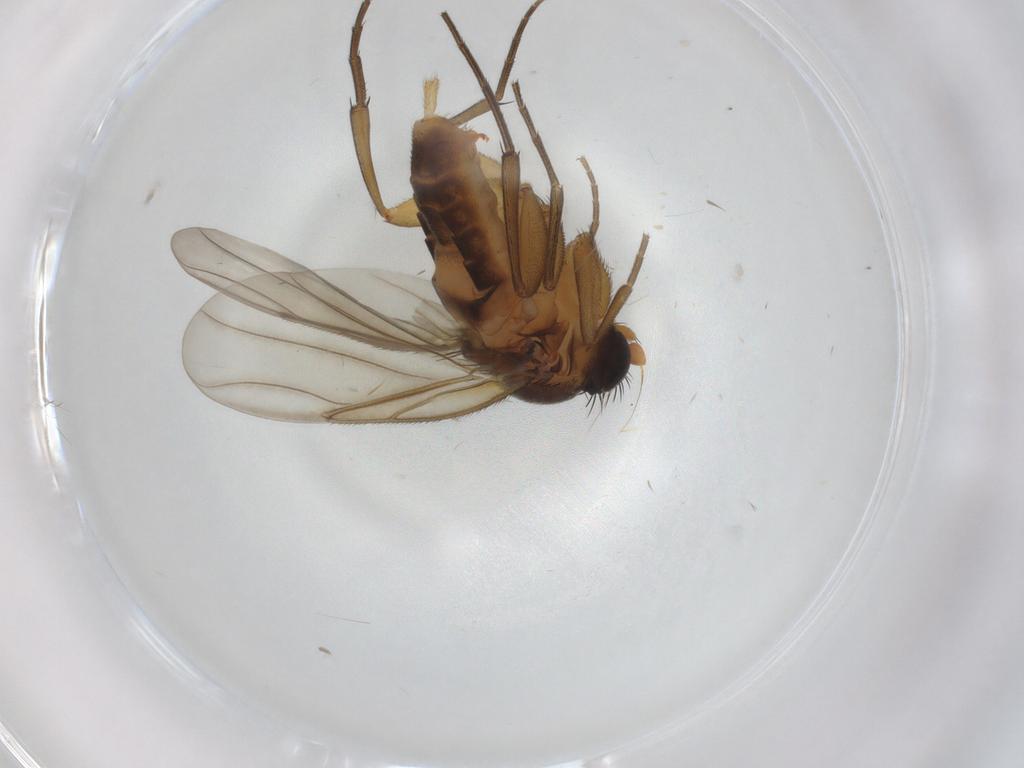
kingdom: Animalia
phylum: Arthropoda
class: Insecta
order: Diptera
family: Phoridae
